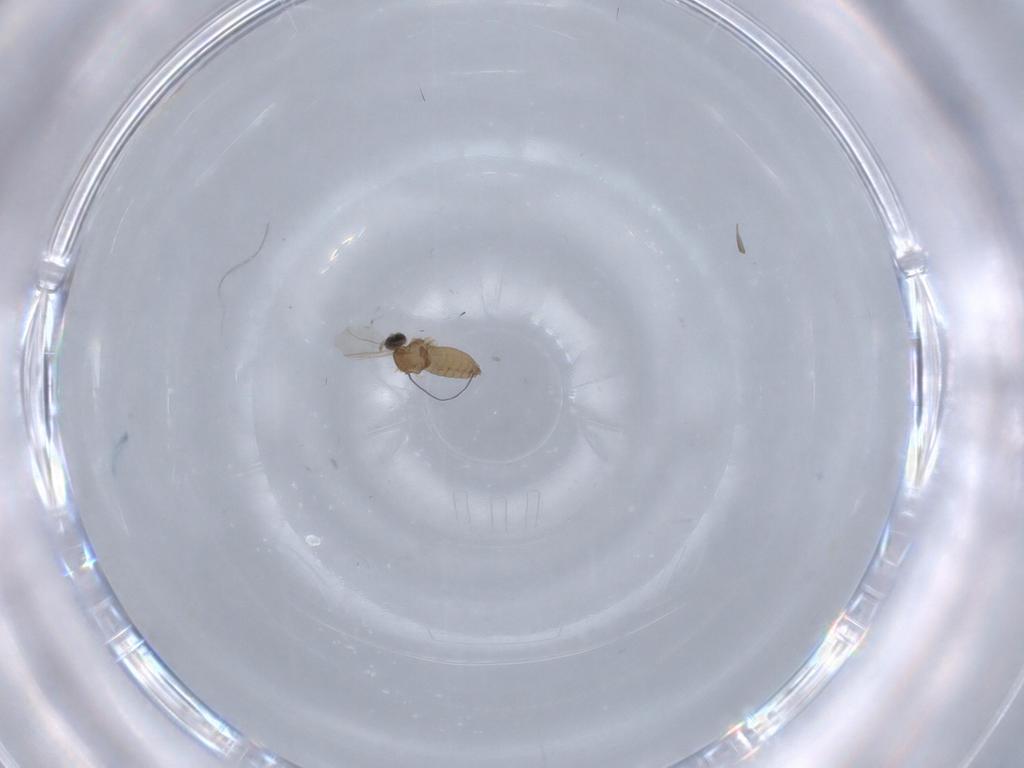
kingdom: Animalia
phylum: Arthropoda
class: Insecta
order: Diptera
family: Cecidomyiidae
